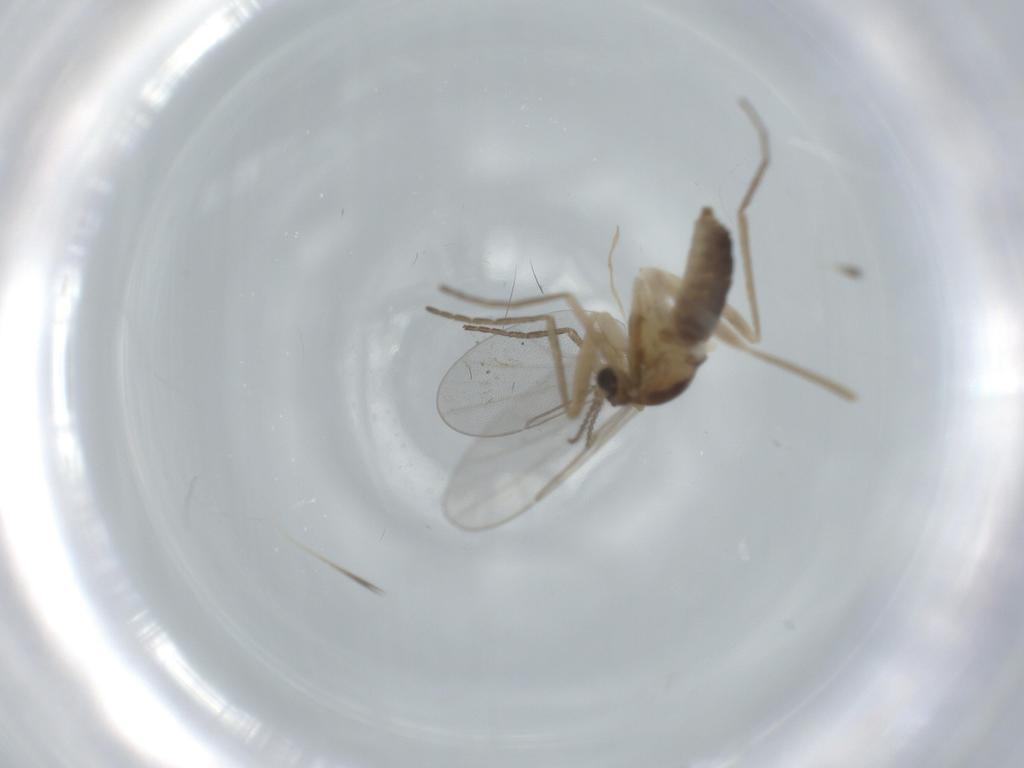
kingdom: Animalia
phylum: Arthropoda
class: Insecta
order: Diptera
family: Cecidomyiidae
